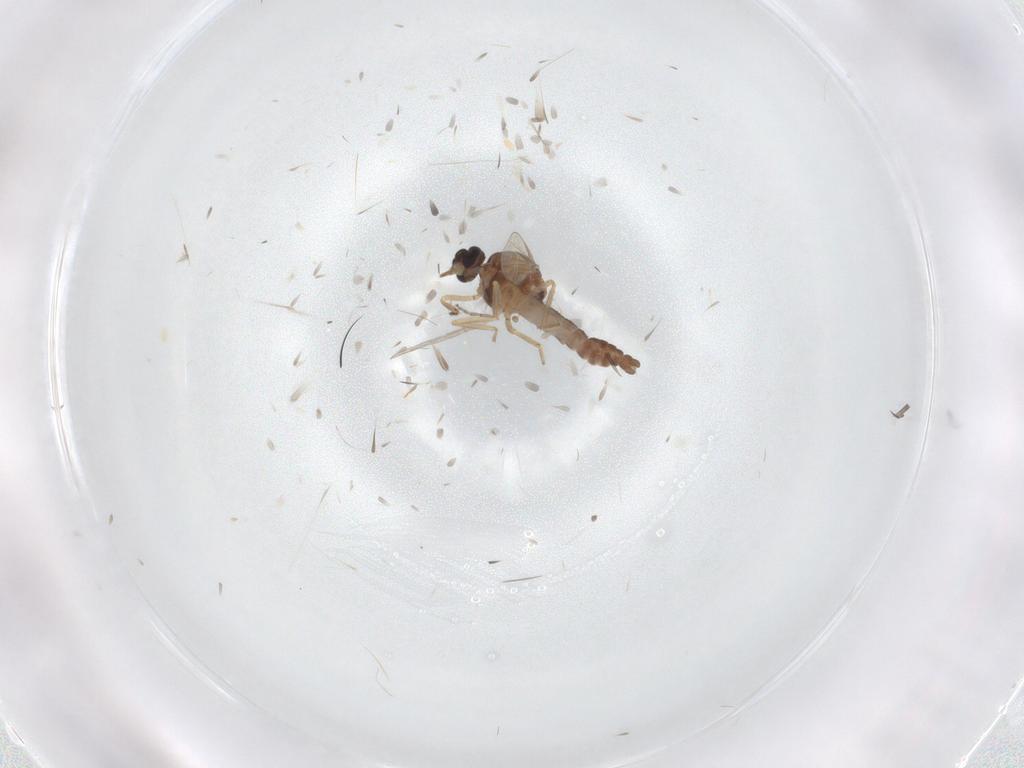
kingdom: Animalia
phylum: Arthropoda
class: Insecta
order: Diptera
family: Ceratopogonidae
